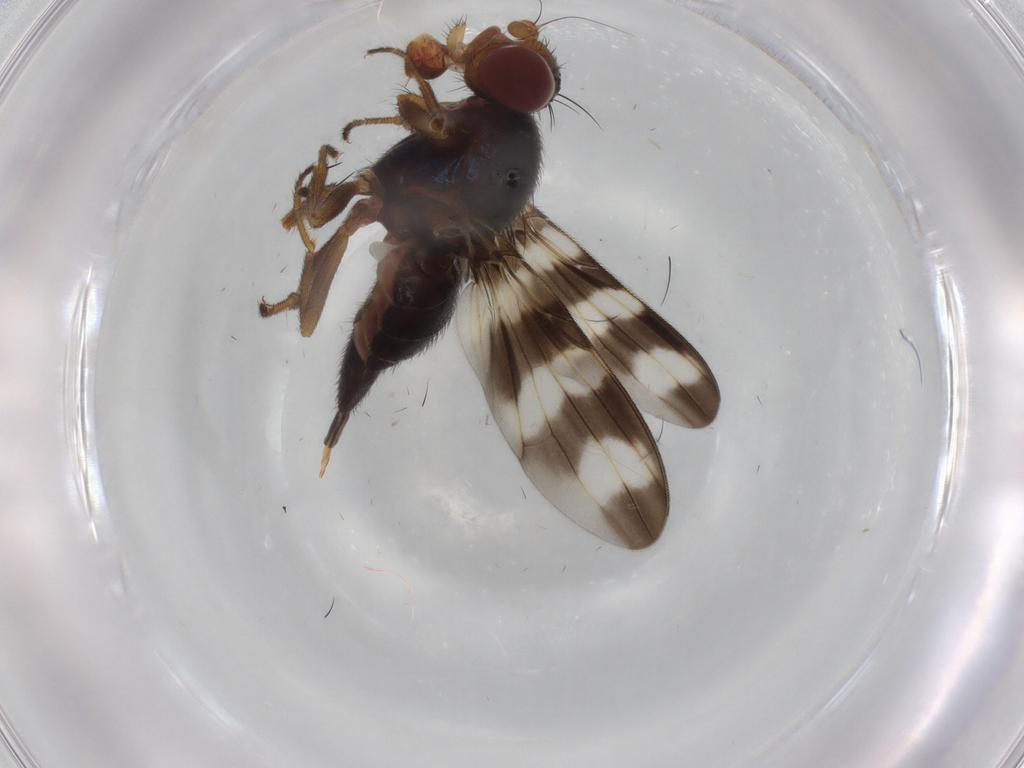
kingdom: Animalia
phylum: Arthropoda
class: Insecta
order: Diptera
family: Ulidiidae
